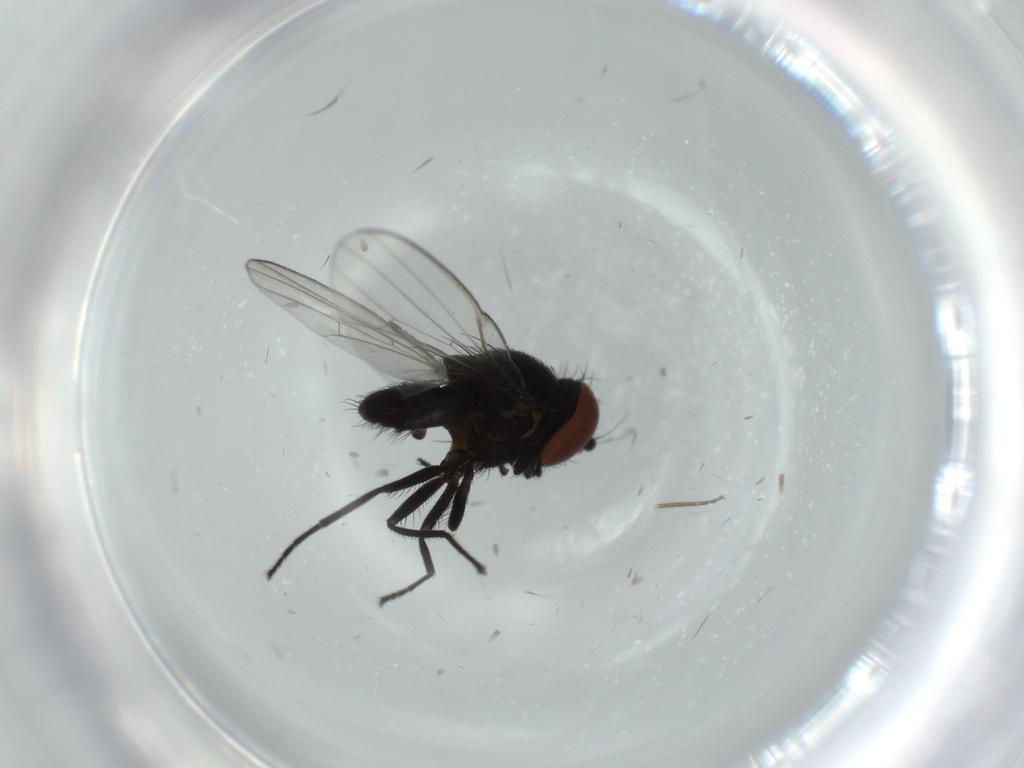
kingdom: Animalia
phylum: Arthropoda
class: Insecta
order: Diptera
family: Milichiidae
